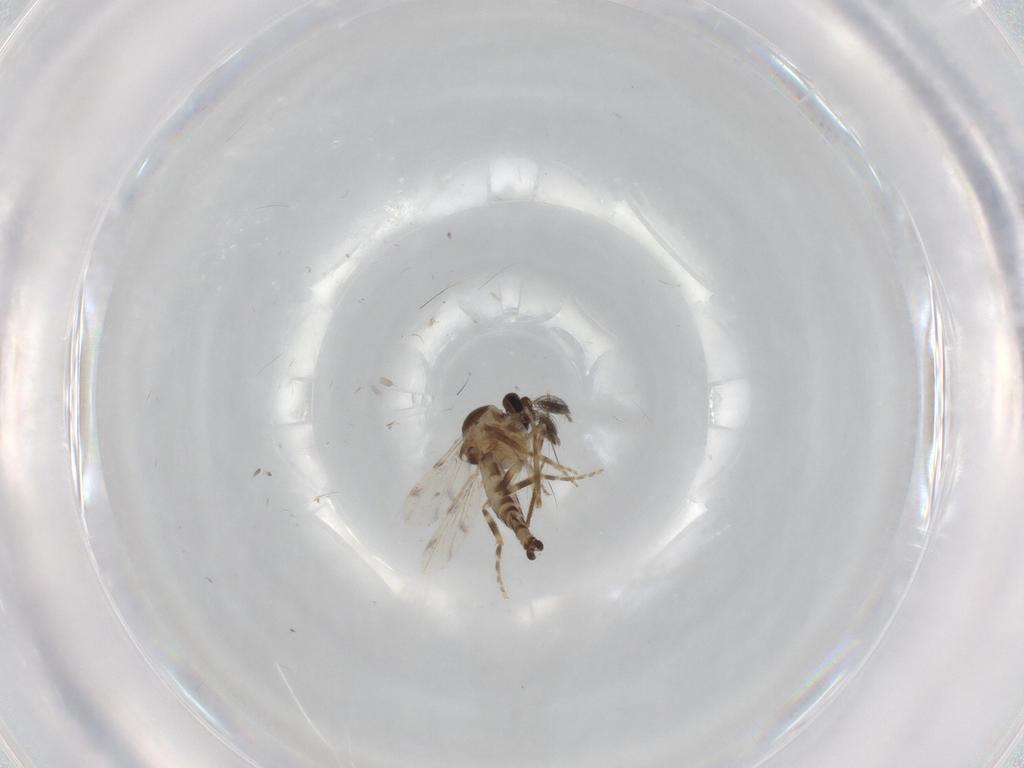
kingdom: Animalia
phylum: Arthropoda
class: Insecta
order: Diptera
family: Ceratopogonidae
